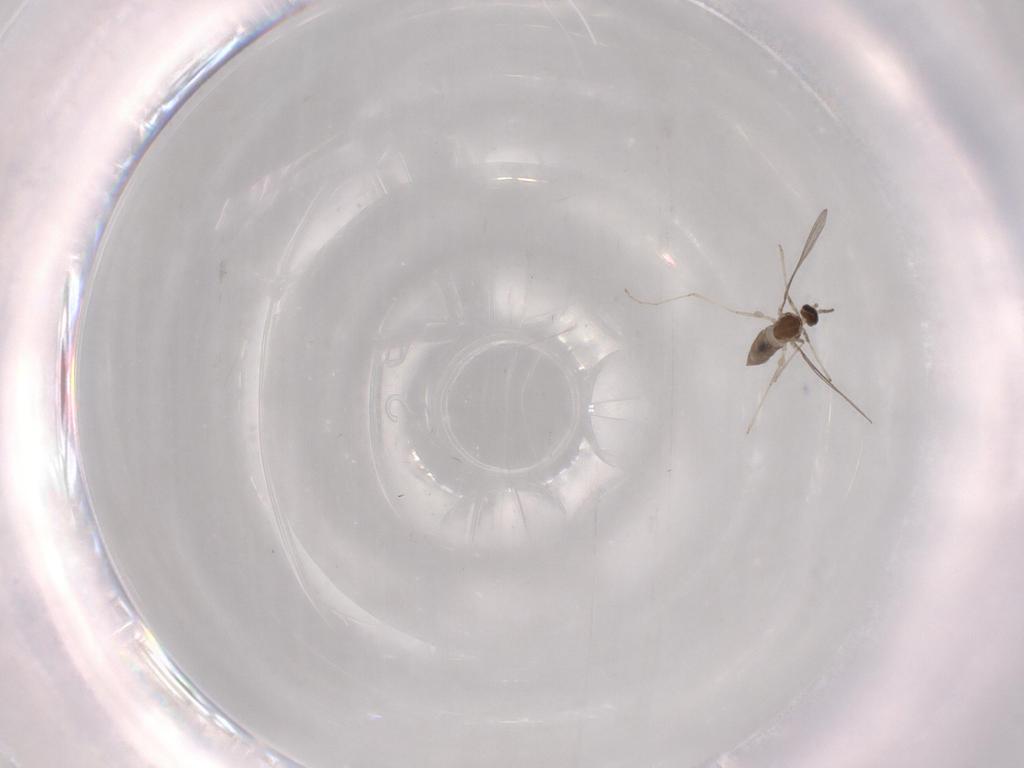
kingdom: Animalia
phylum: Arthropoda
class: Insecta
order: Diptera
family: Cecidomyiidae
